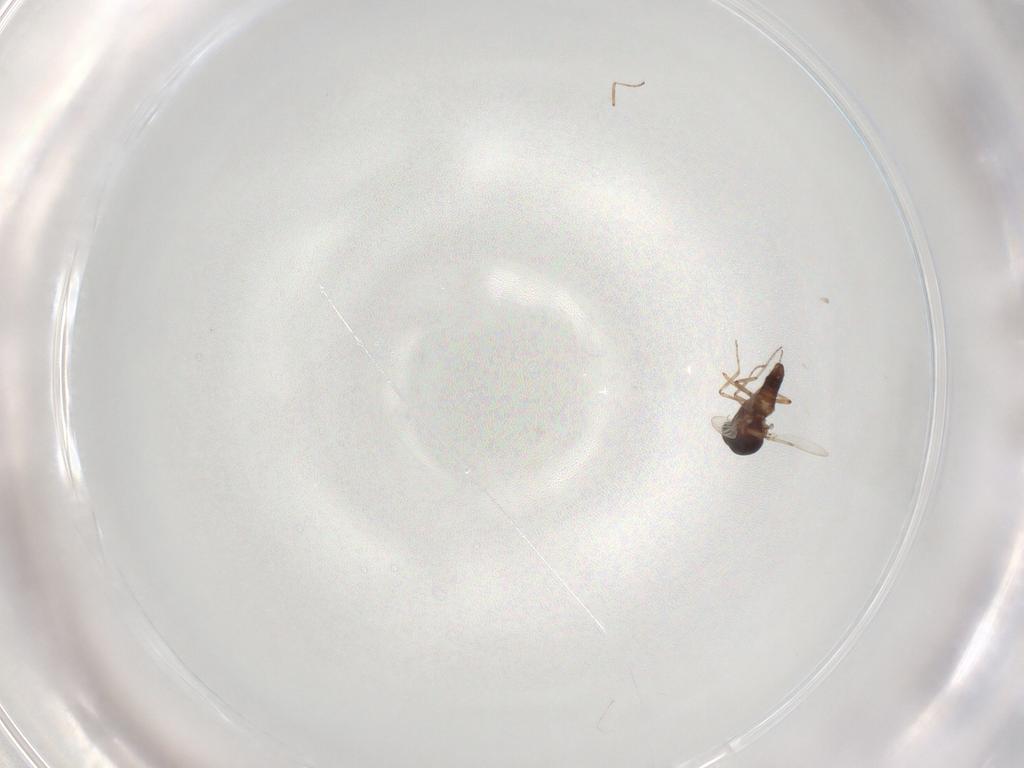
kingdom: Animalia
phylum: Arthropoda
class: Insecta
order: Diptera
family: Ceratopogonidae
